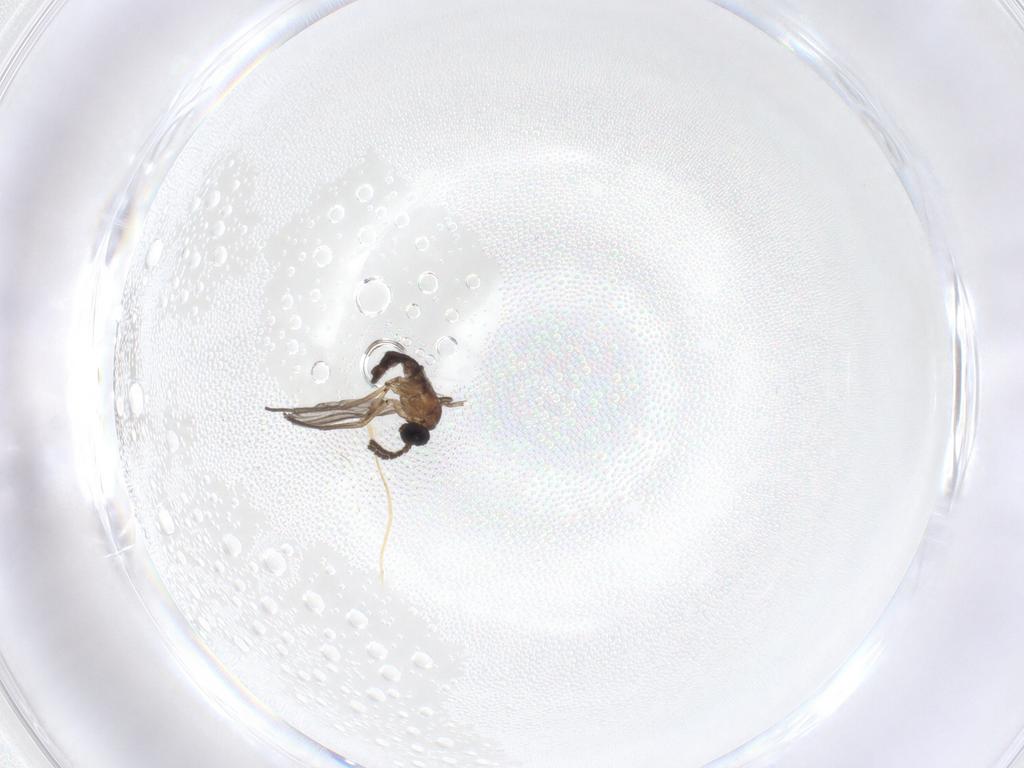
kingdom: Animalia
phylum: Arthropoda
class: Insecta
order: Diptera
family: Sciaridae
